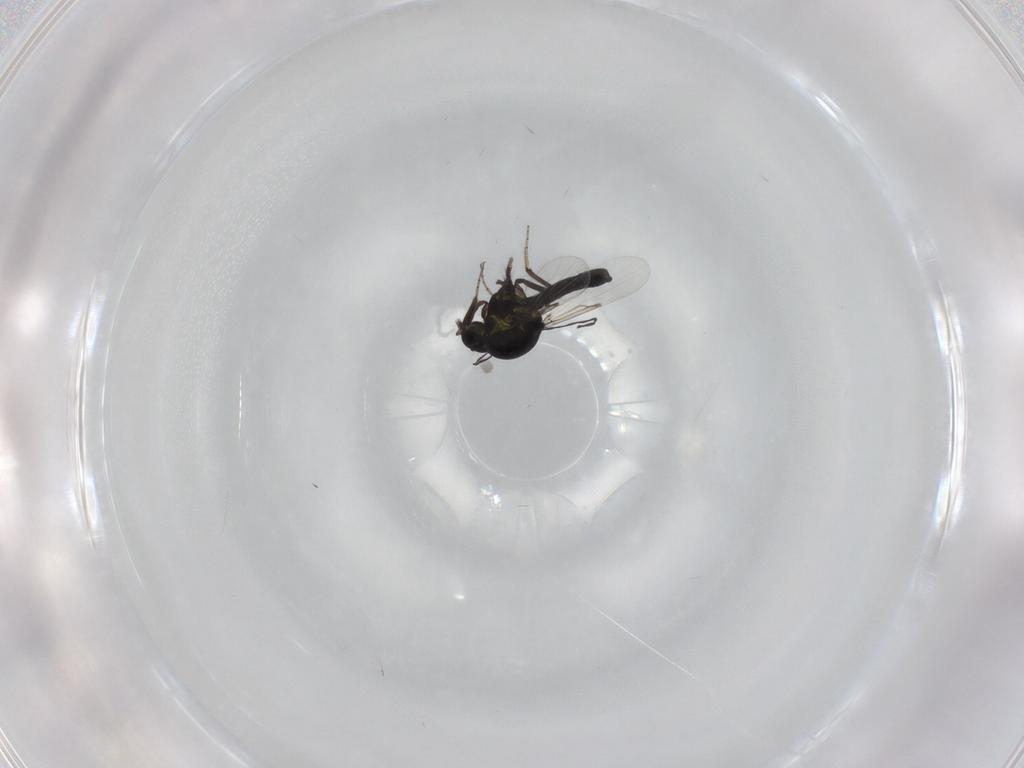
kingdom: Animalia
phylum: Arthropoda
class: Insecta
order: Diptera
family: Ceratopogonidae
